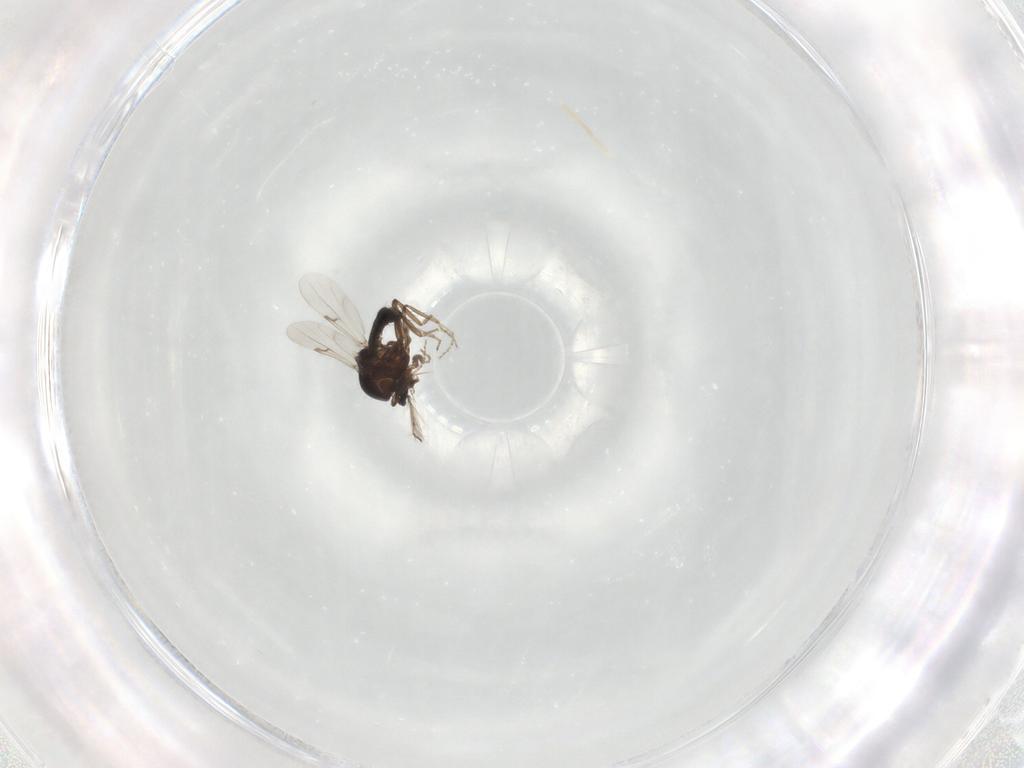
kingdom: Animalia
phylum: Arthropoda
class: Insecta
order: Diptera
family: Ceratopogonidae
